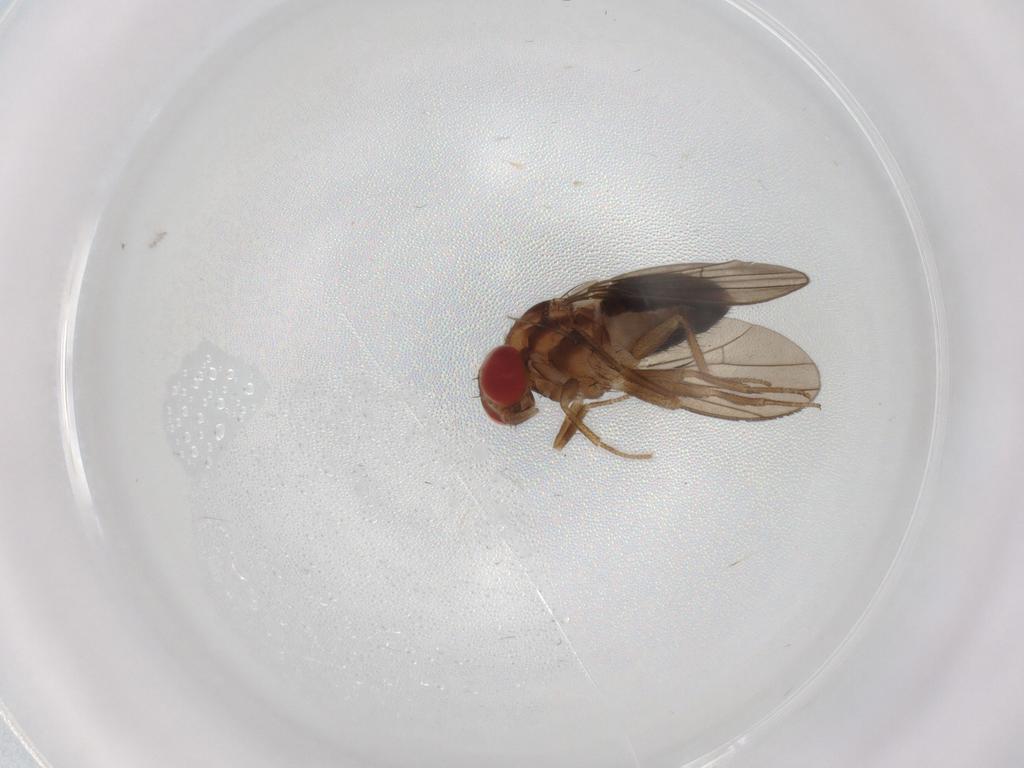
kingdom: Animalia
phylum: Arthropoda
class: Insecta
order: Diptera
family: Drosophilidae
